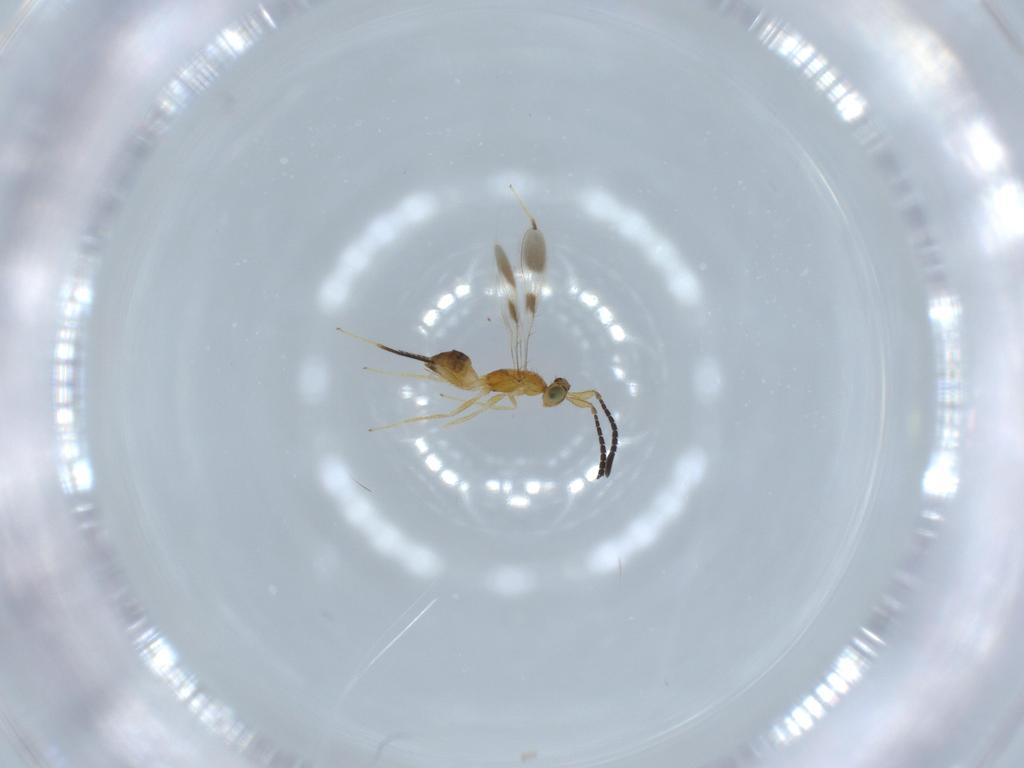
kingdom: Animalia
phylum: Arthropoda
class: Insecta
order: Hymenoptera
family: Mymaridae
